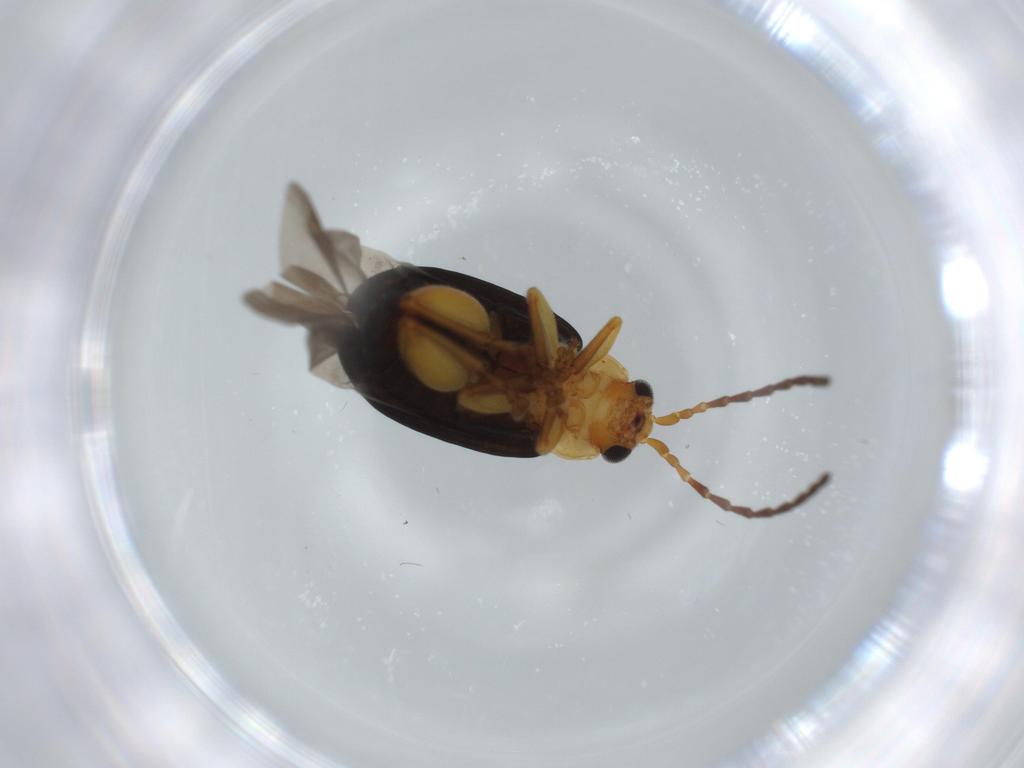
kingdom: Animalia
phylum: Arthropoda
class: Insecta
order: Coleoptera
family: Chrysomelidae
